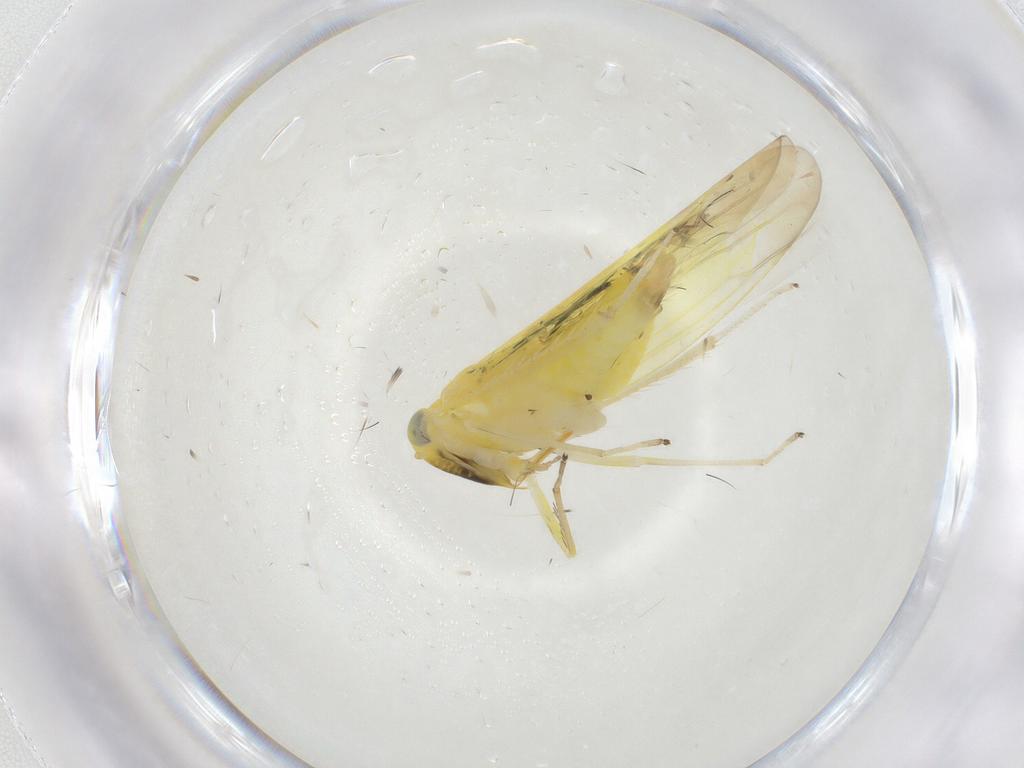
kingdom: Animalia
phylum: Arthropoda
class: Insecta
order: Hemiptera
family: Cicadellidae
